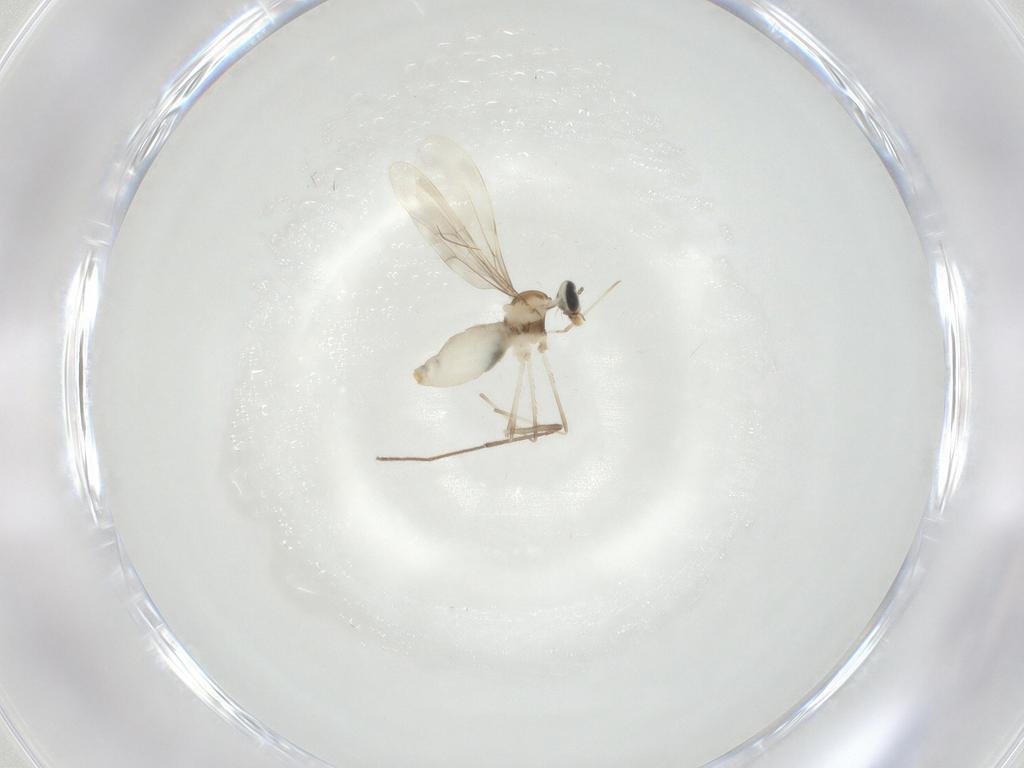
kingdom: Animalia
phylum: Arthropoda
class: Insecta
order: Diptera
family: Cecidomyiidae
